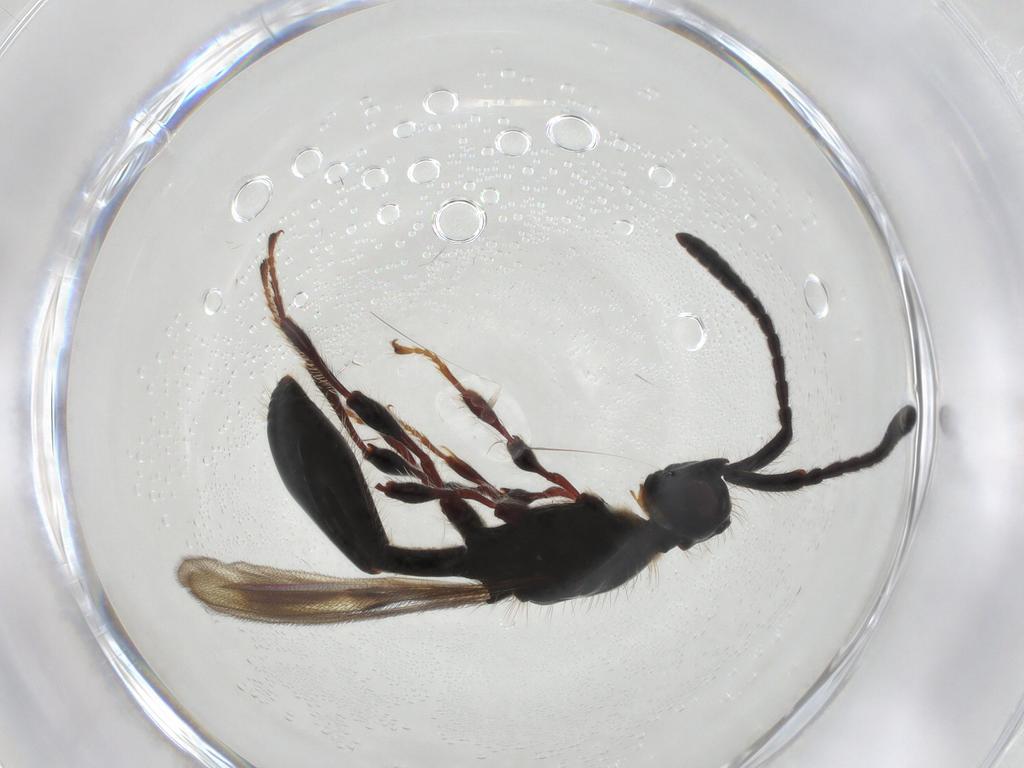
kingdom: Animalia
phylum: Arthropoda
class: Insecta
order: Hymenoptera
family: Diapriidae
